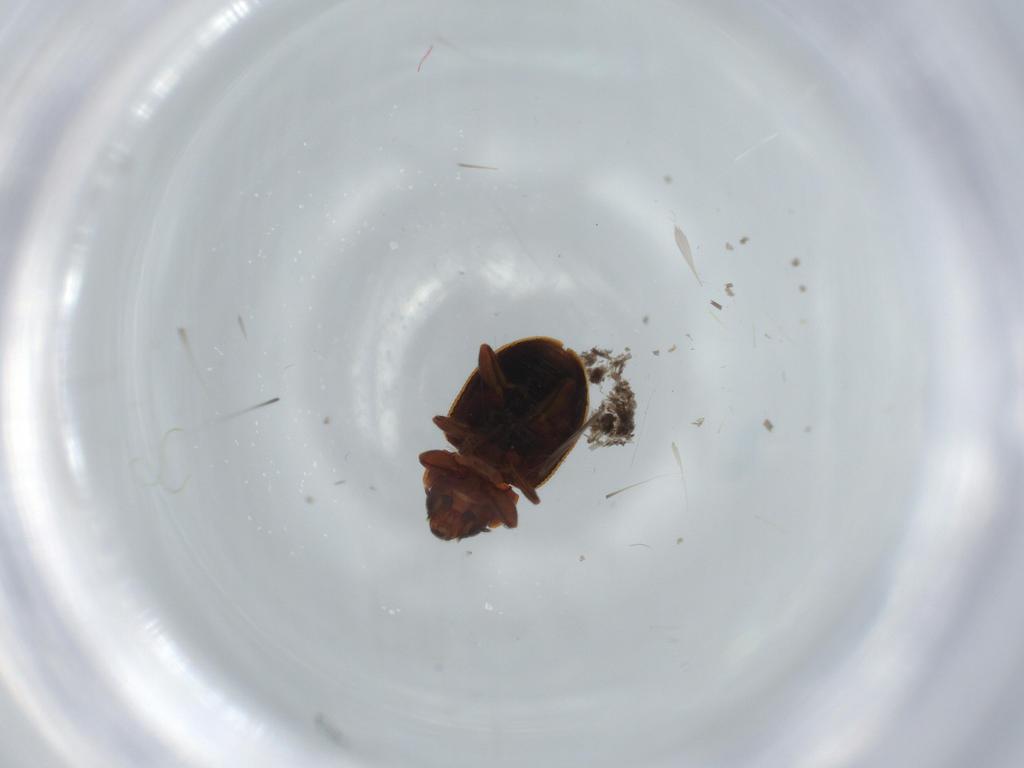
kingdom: Animalia
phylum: Arthropoda
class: Insecta
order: Coleoptera
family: Coccinellidae
